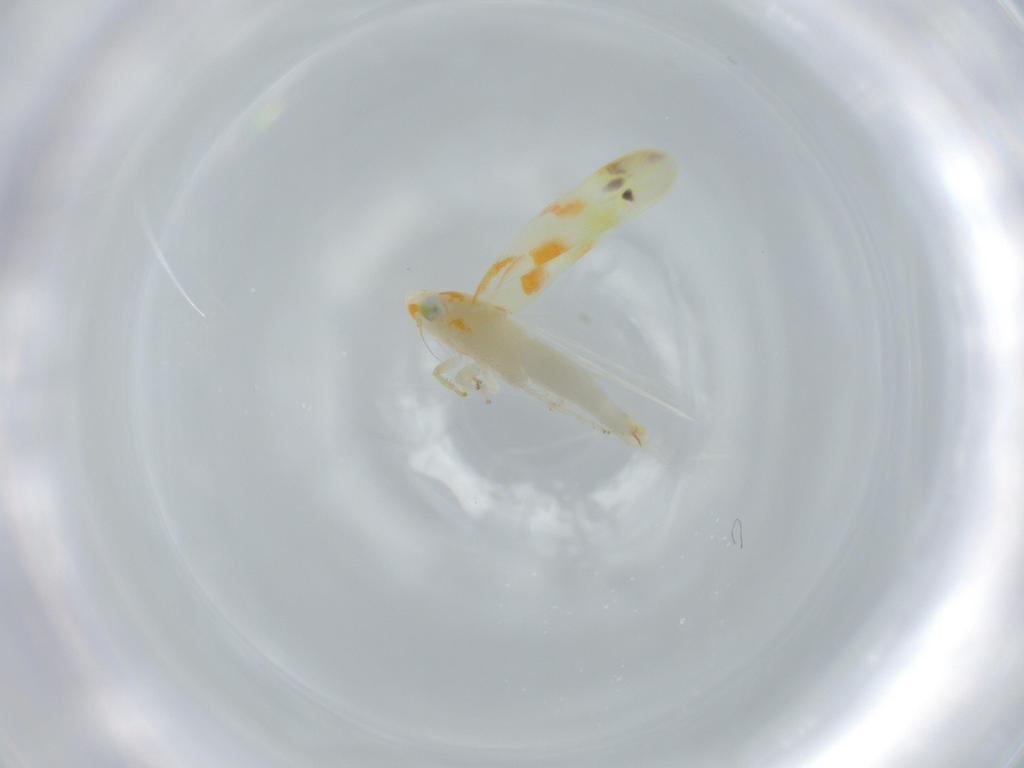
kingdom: Animalia
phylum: Arthropoda
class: Insecta
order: Hemiptera
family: Cicadellidae
